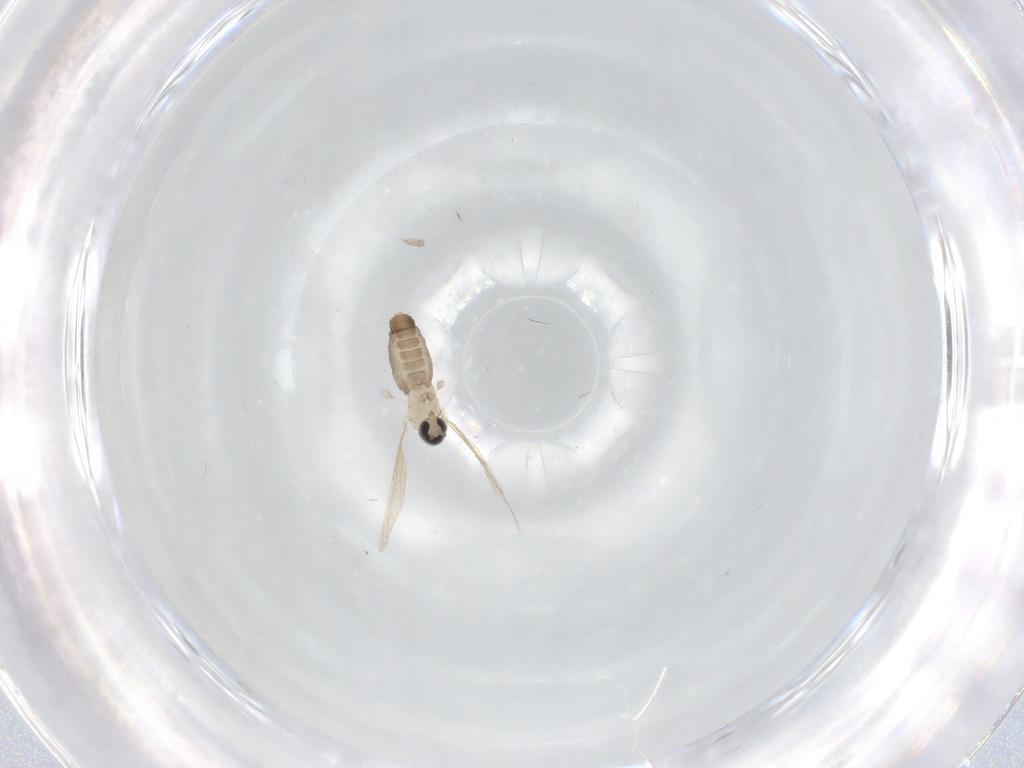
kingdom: Animalia
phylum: Arthropoda
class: Insecta
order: Diptera
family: Cecidomyiidae
